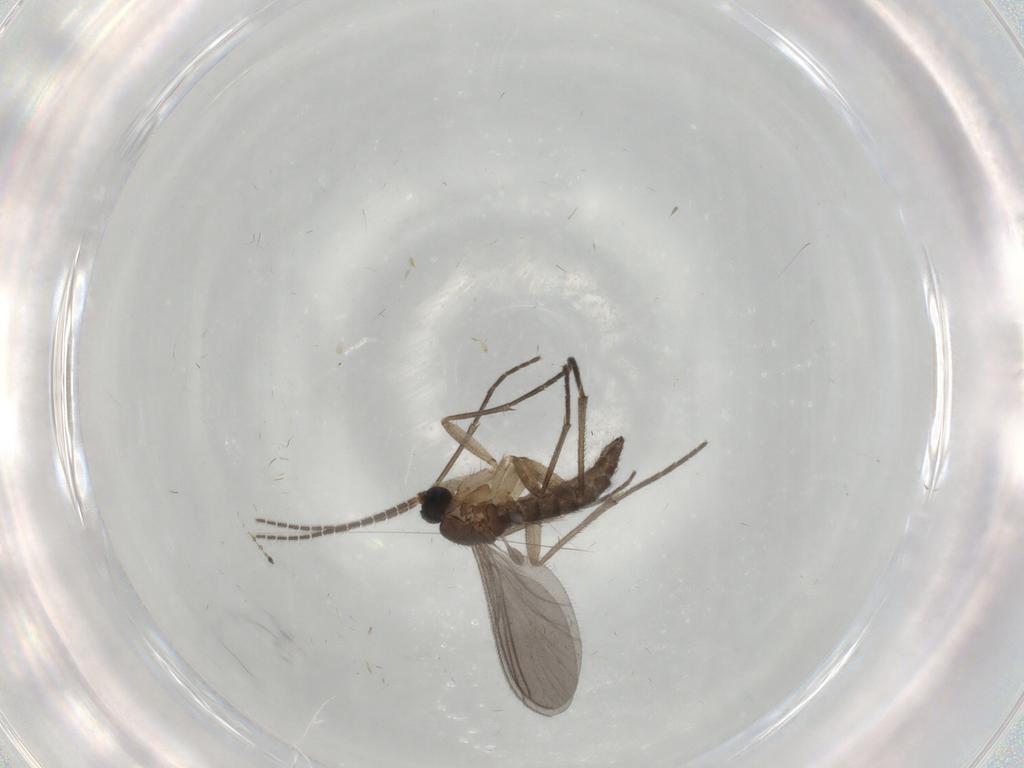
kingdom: Animalia
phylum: Arthropoda
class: Insecta
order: Diptera
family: Sciaridae
